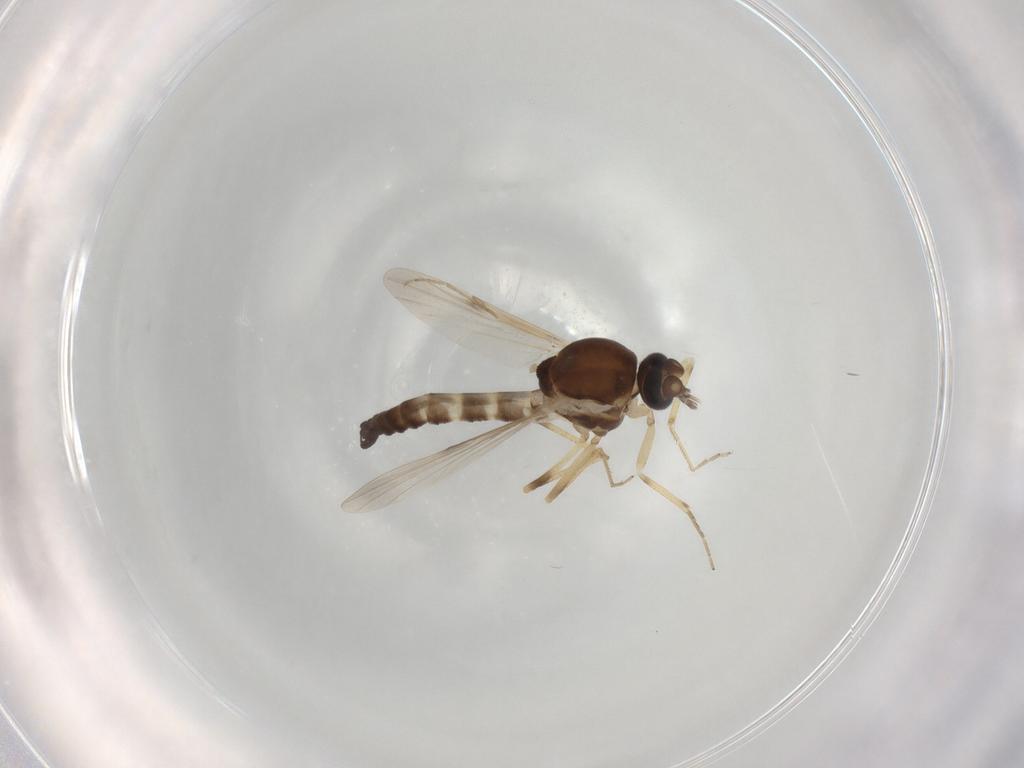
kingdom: Animalia
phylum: Arthropoda
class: Insecta
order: Diptera
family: Ceratopogonidae
